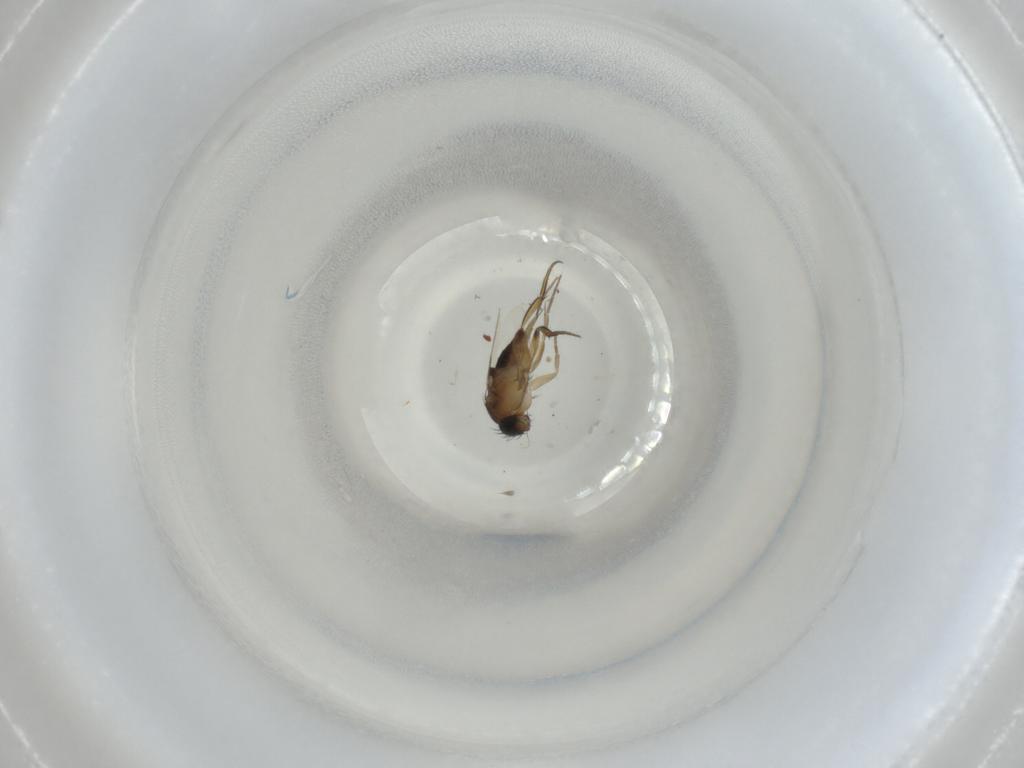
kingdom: Animalia
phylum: Arthropoda
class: Insecta
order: Diptera
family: Phoridae
